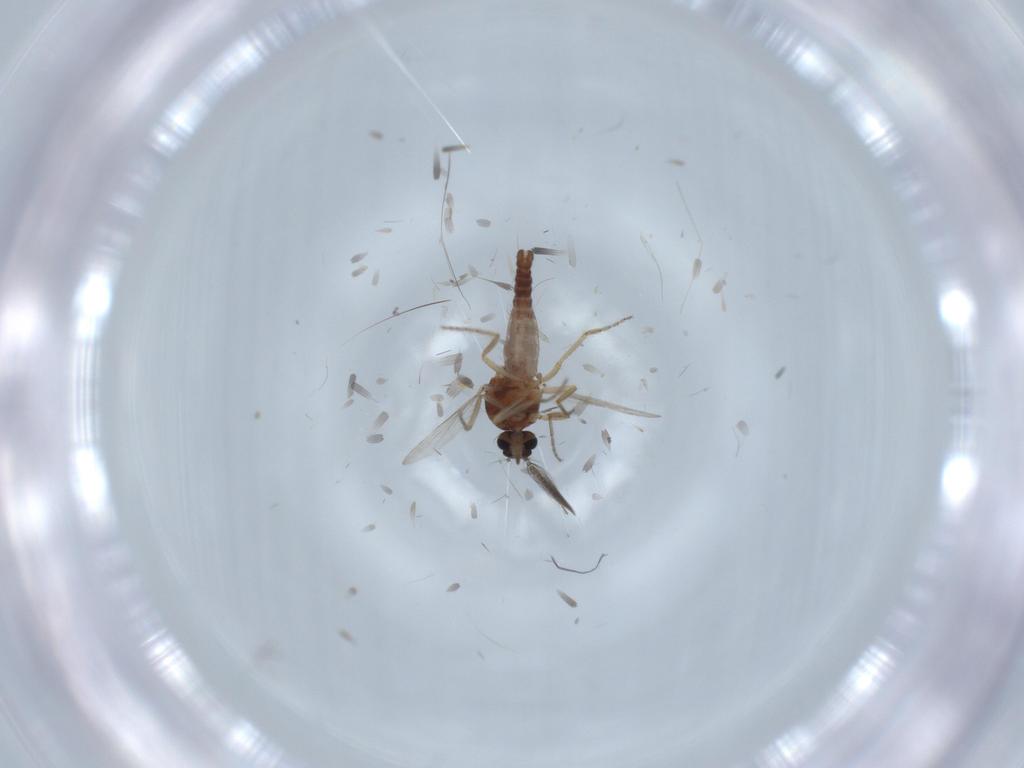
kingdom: Animalia
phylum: Arthropoda
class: Insecta
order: Diptera
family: Ceratopogonidae
